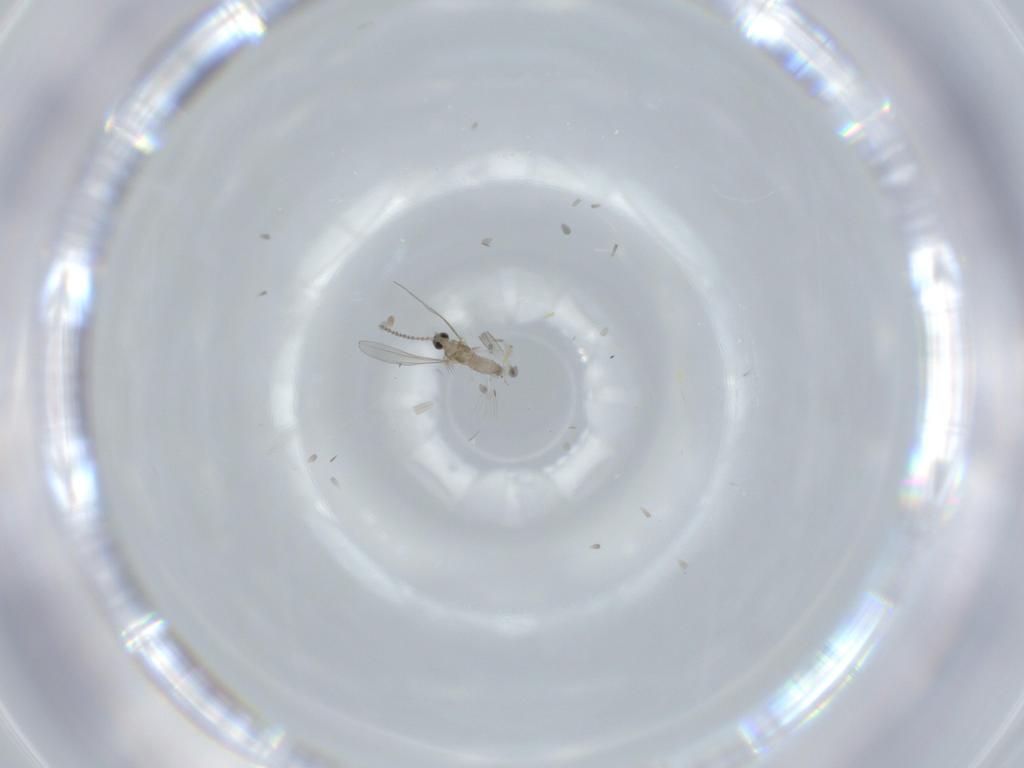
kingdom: Animalia
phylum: Arthropoda
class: Insecta
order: Diptera
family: Cecidomyiidae
